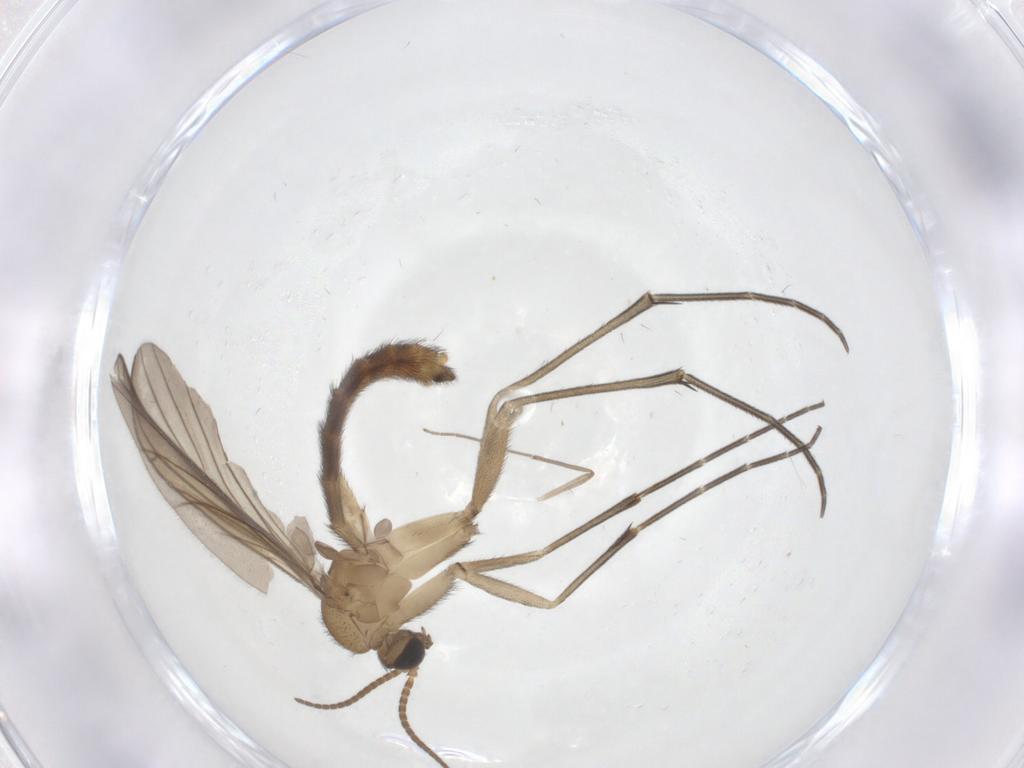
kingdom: Animalia
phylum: Arthropoda
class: Insecta
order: Diptera
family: Keroplatidae
